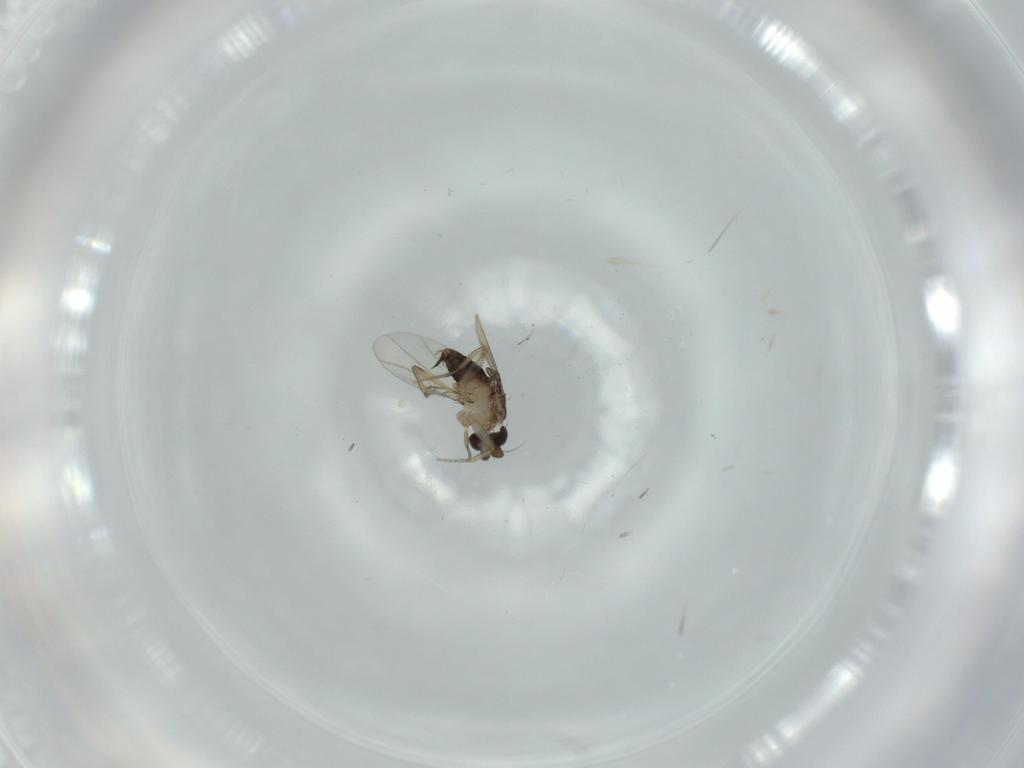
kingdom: Animalia
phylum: Arthropoda
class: Insecta
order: Diptera
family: Phoridae
